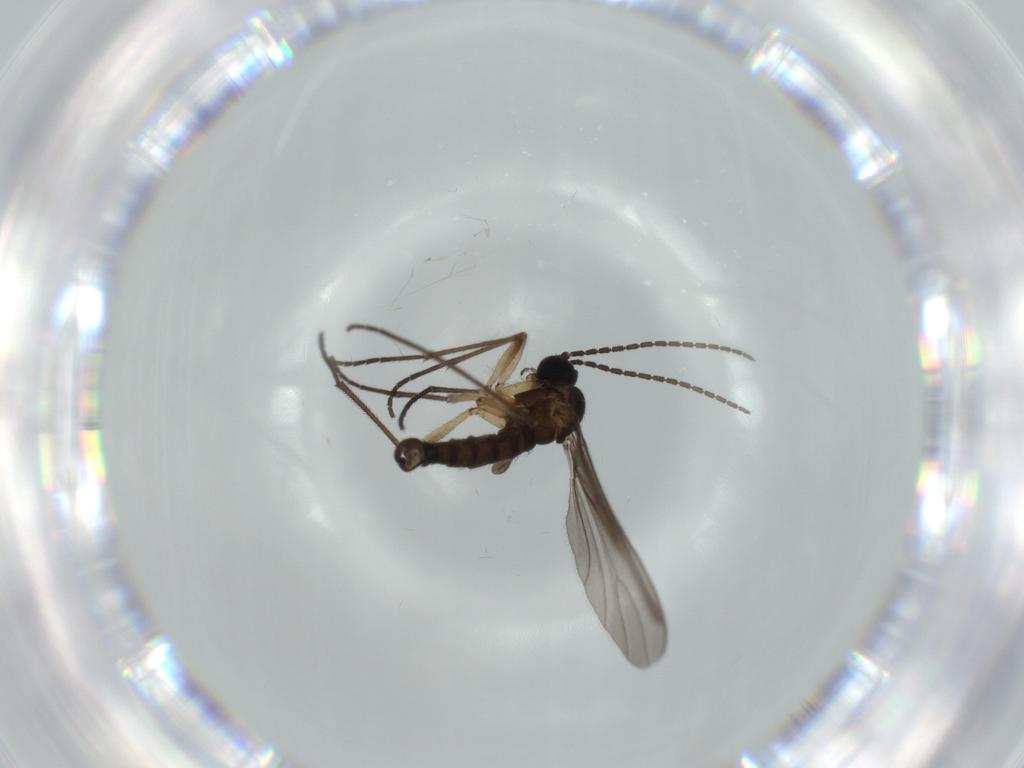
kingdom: Animalia
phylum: Arthropoda
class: Insecta
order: Diptera
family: Sciaridae
